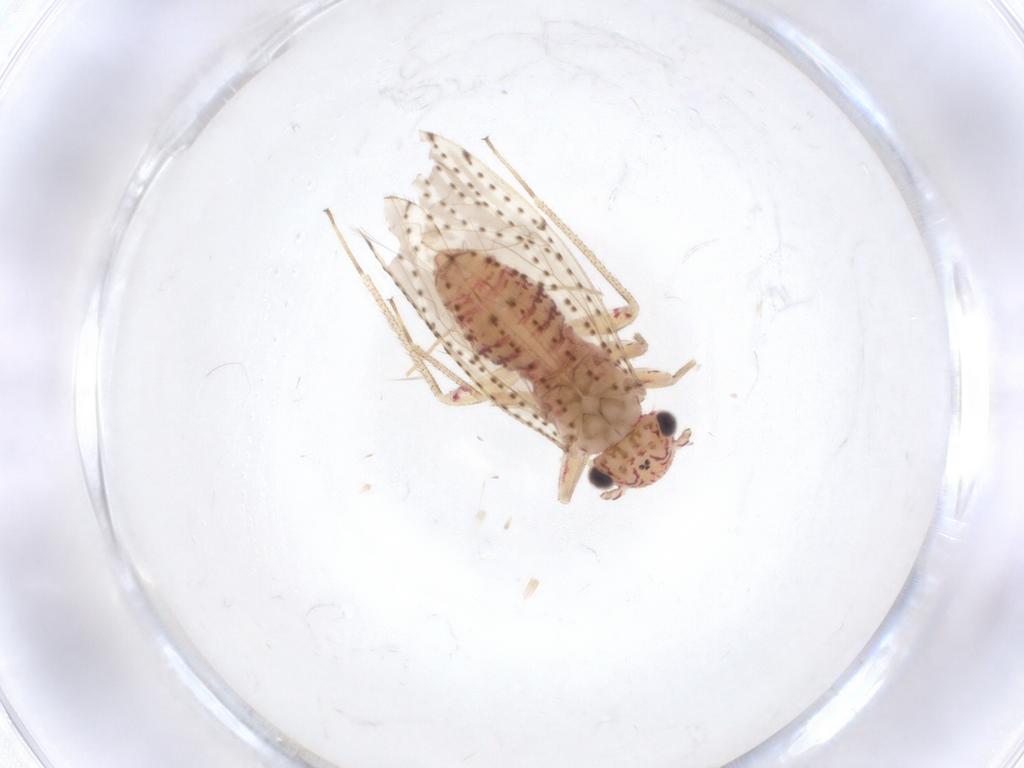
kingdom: Animalia
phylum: Arthropoda
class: Insecta
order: Psocodea
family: Philotarsidae
